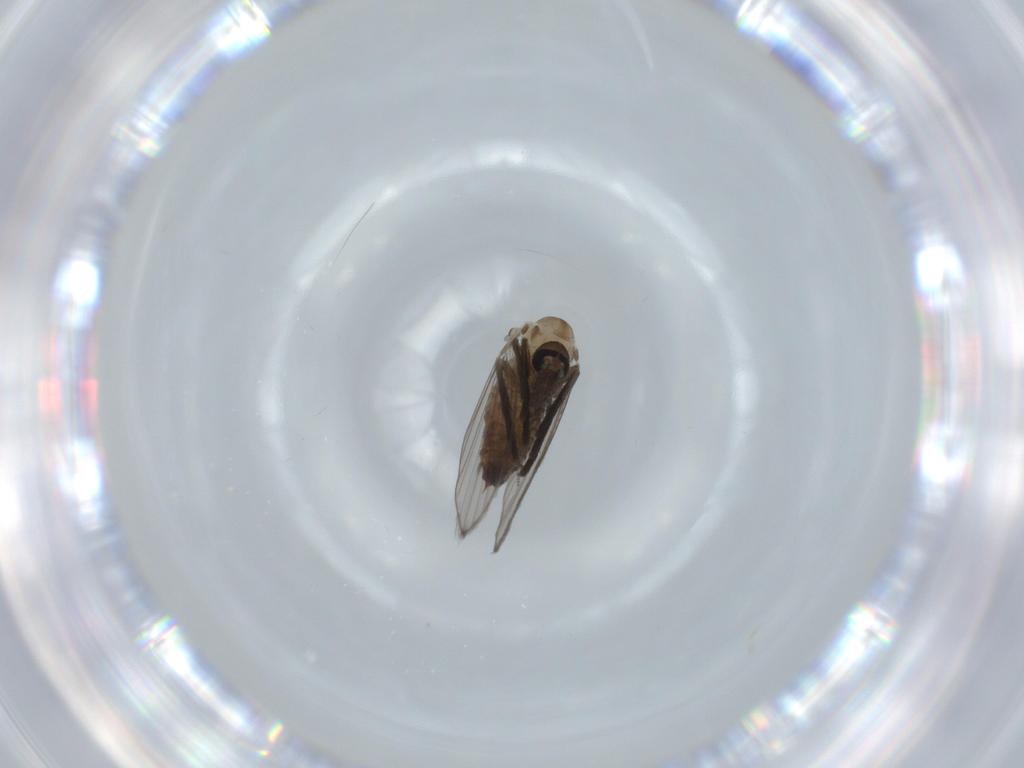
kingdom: Animalia
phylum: Arthropoda
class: Insecta
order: Diptera
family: Psychodidae
